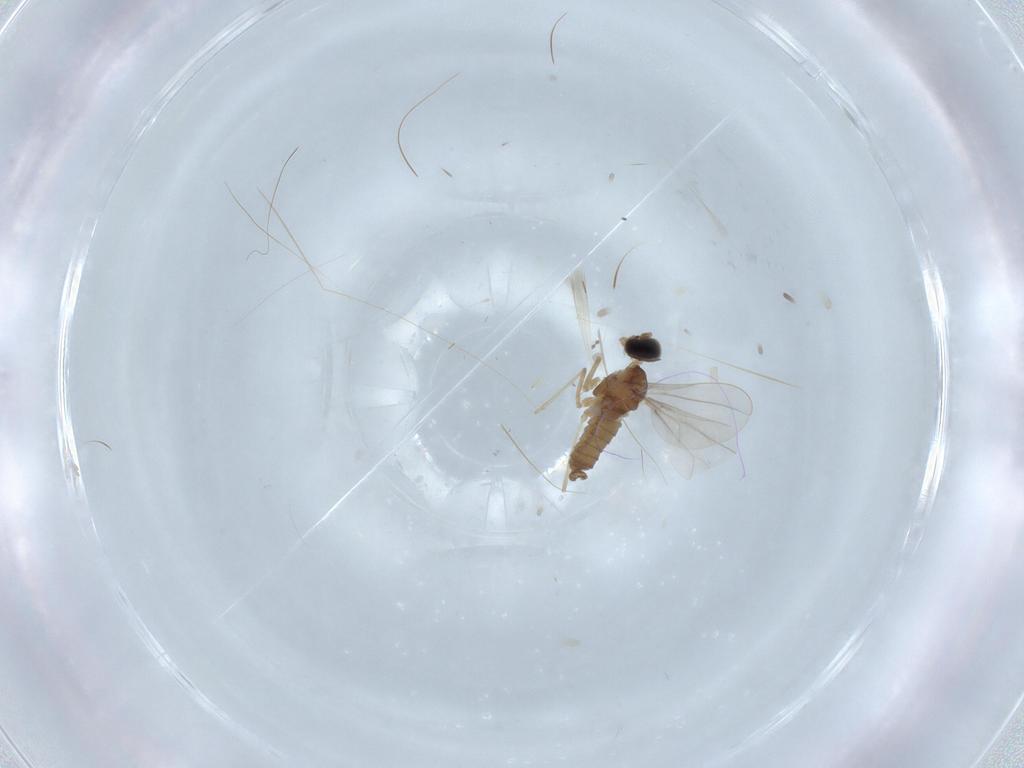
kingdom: Animalia
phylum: Arthropoda
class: Insecta
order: Diptera
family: Cecidomyiidae
